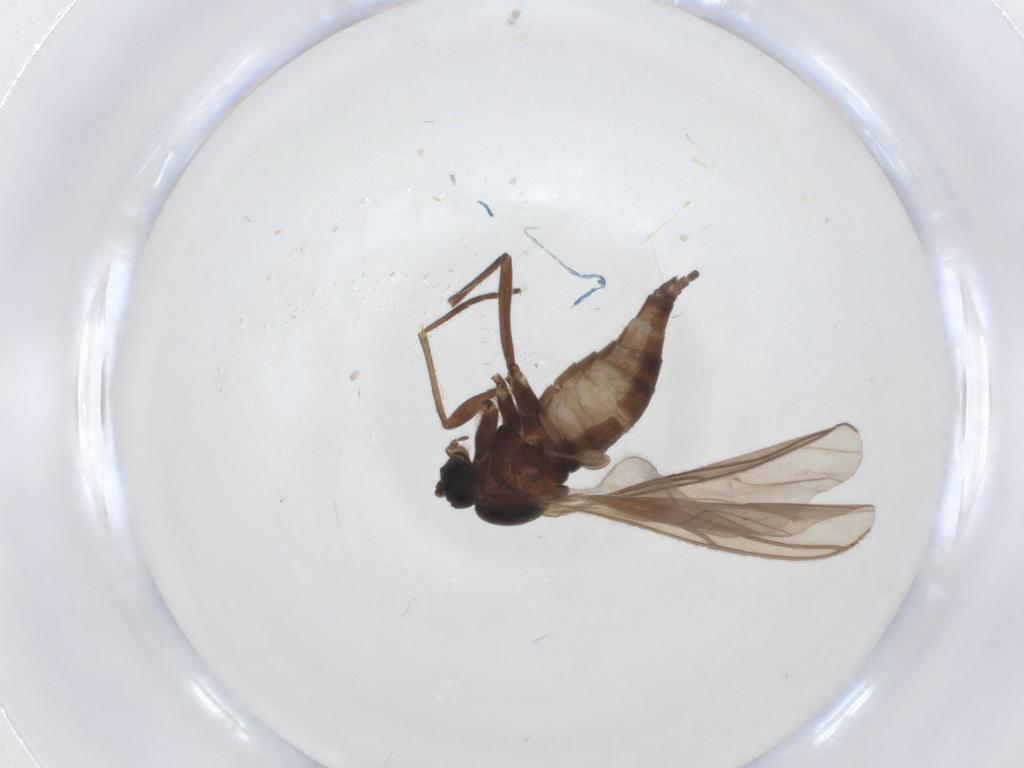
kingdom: Animalia
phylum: Arthropoda
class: Insecta
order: Diptera
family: Sciaridae
